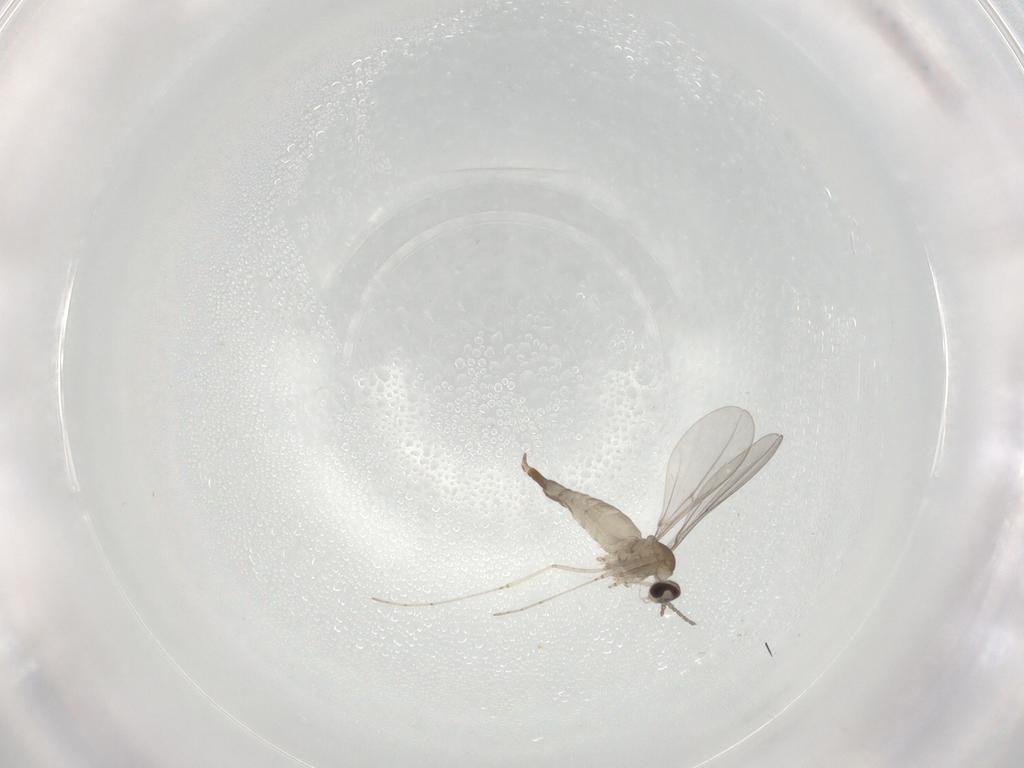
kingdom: Animalia
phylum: Arthropoda
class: Insecta
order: Diptera
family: Cecidomyiidae
